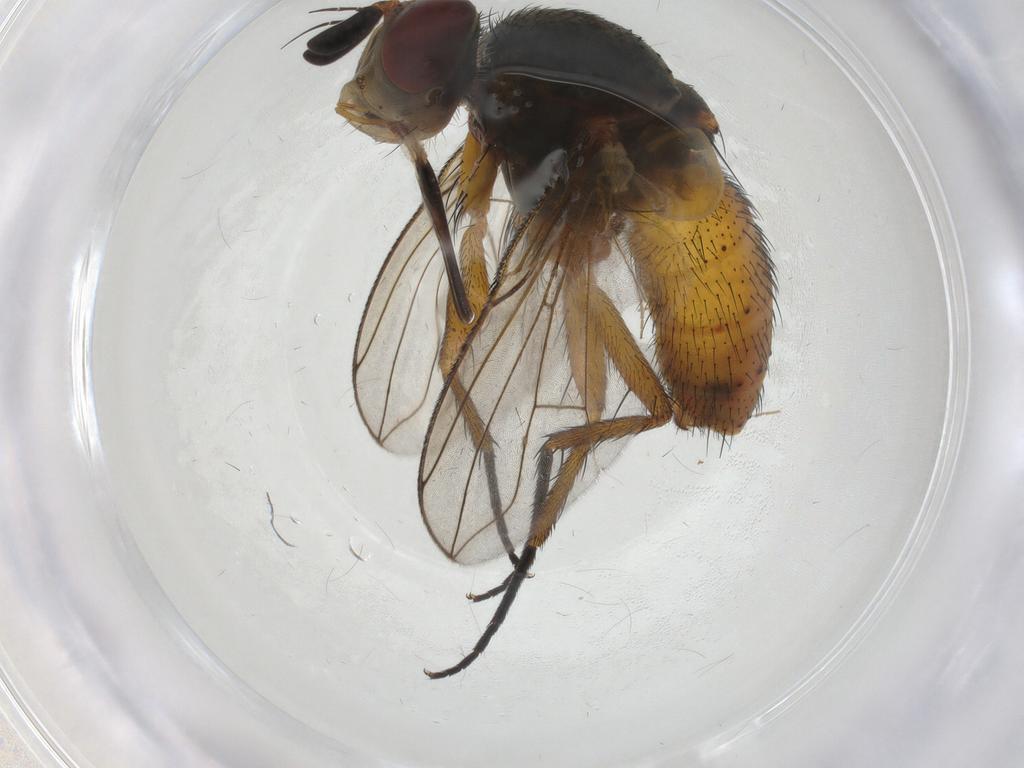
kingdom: Animalia
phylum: Arthropoda
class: Insecta
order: Diptera
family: Tachinidae
